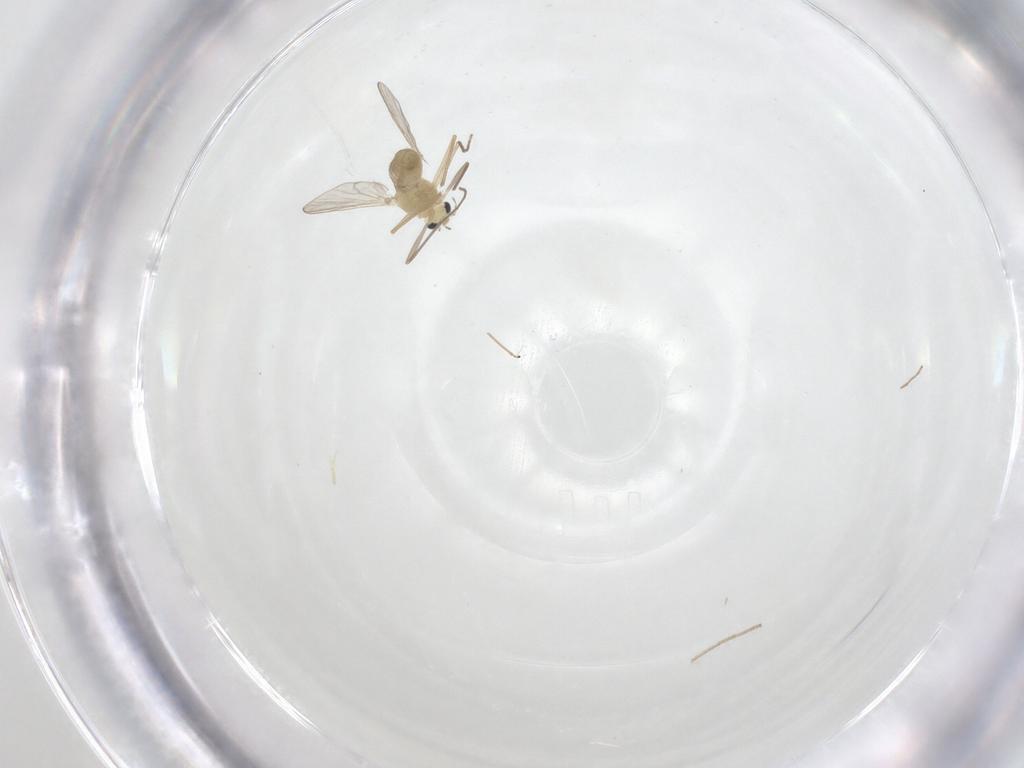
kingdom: Animalia
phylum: Arthropoda
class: Insecta
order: Diptera
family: Chironomidae
